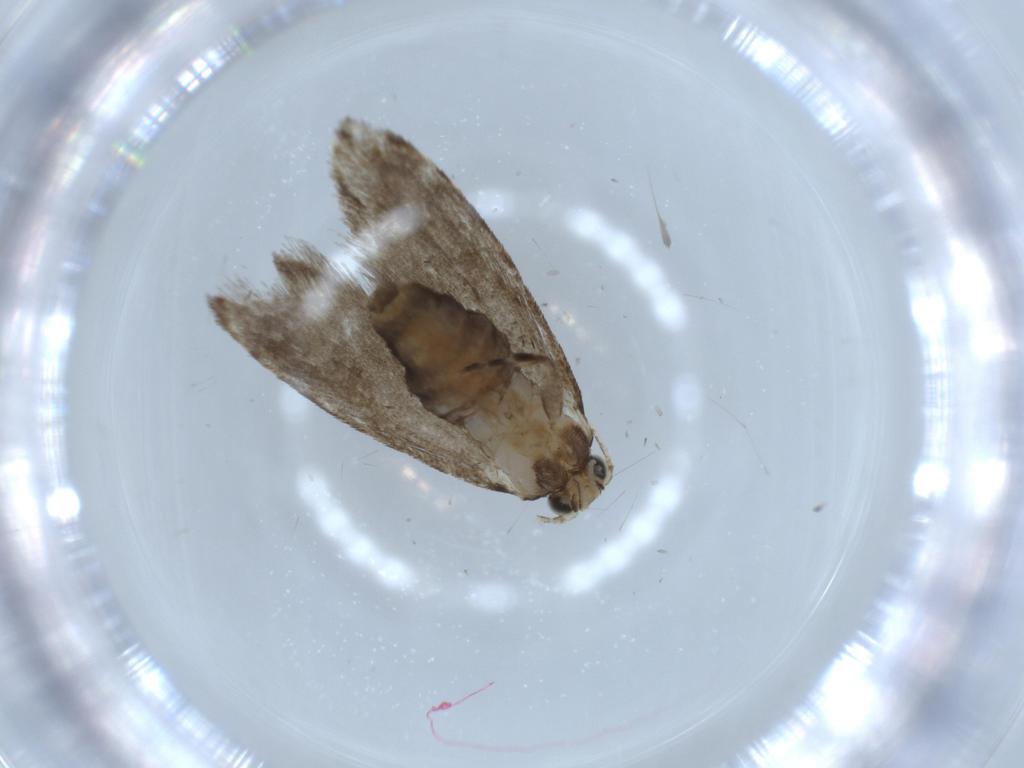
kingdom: Animalia
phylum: Arthropoda
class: Insecta
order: Lepidoptera
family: Tineidae
